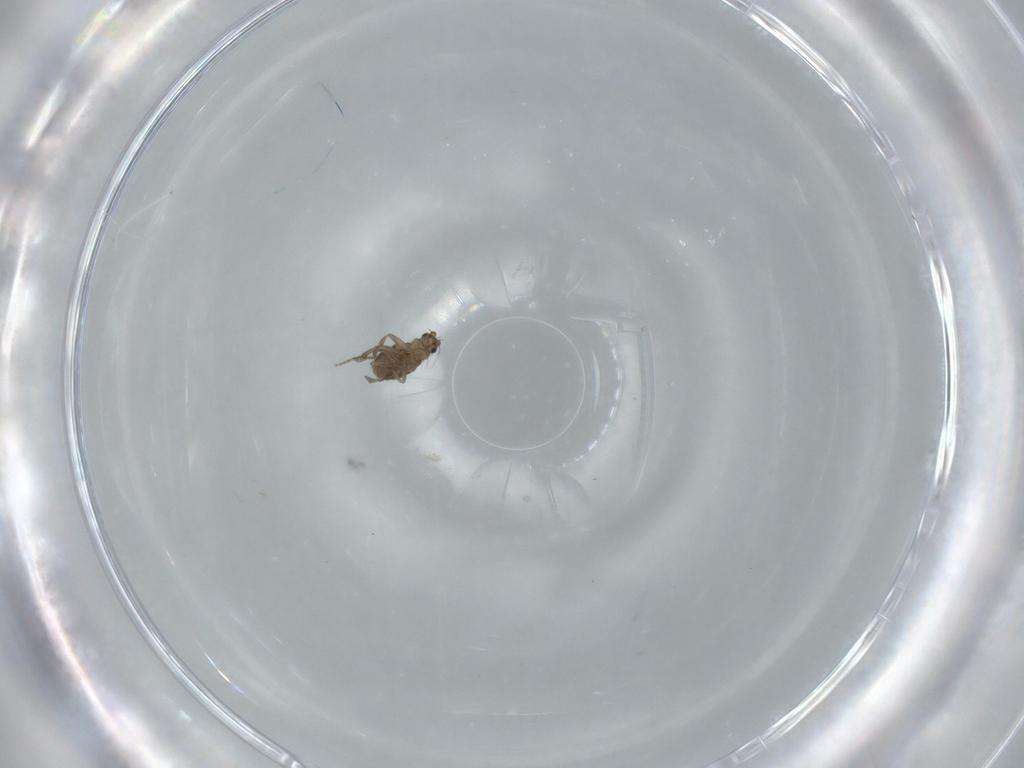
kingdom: Animalia
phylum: Arthropoda
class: Insecta
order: Diptera
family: Phoridae
